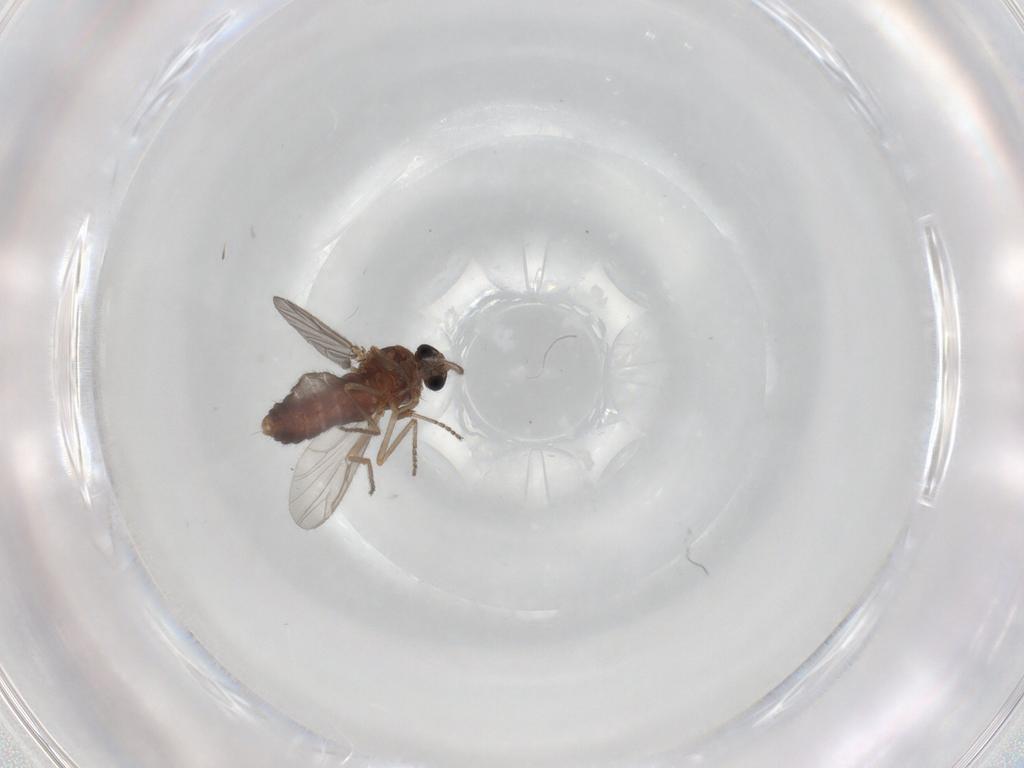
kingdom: Animalia
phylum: Arthropoda
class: Insecta
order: Diptera
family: Ceratopogonidae
